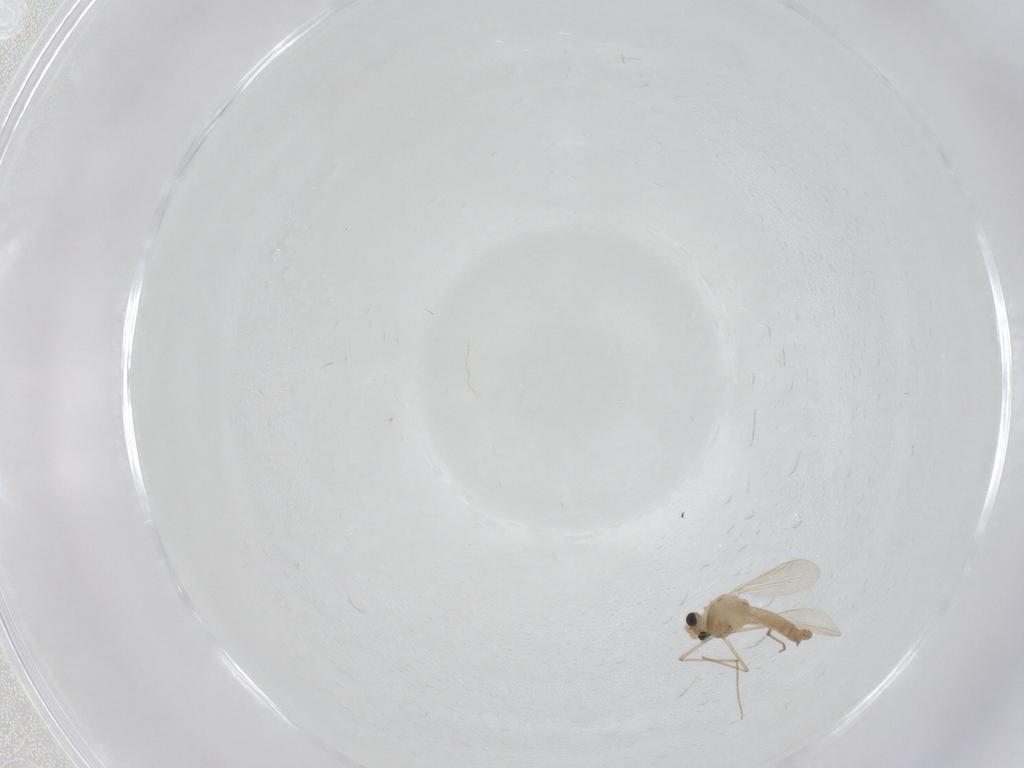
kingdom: Animalia
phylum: Arthropoda
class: Insecta
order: Diptera
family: Chironomidae
